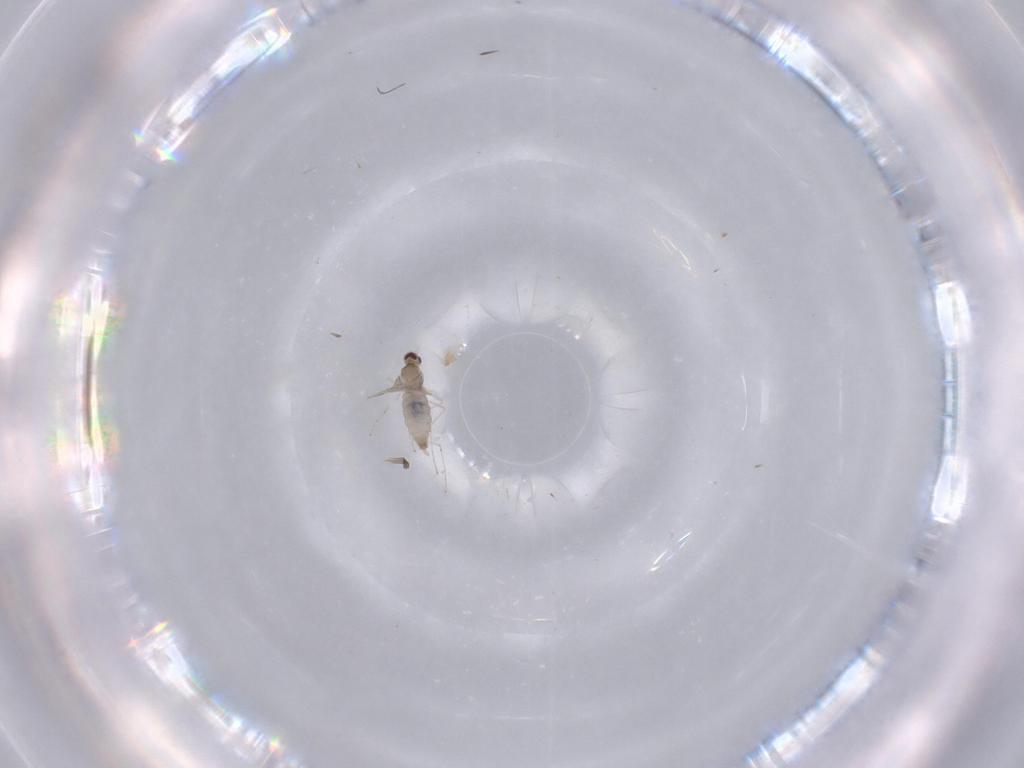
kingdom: Animalia
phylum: Arthropoda
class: Insecta
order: Diptera
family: Cecidomyiidae
